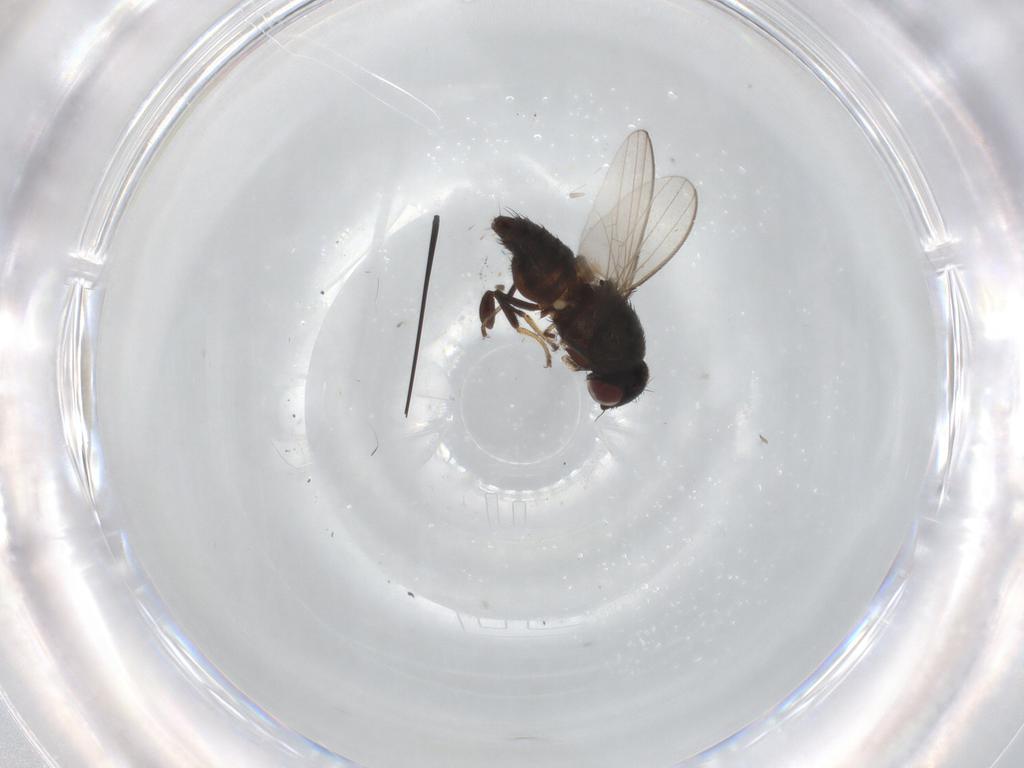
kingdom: Animalia
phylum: Arthropoda
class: Insecta
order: Diptera
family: Milichiidae
